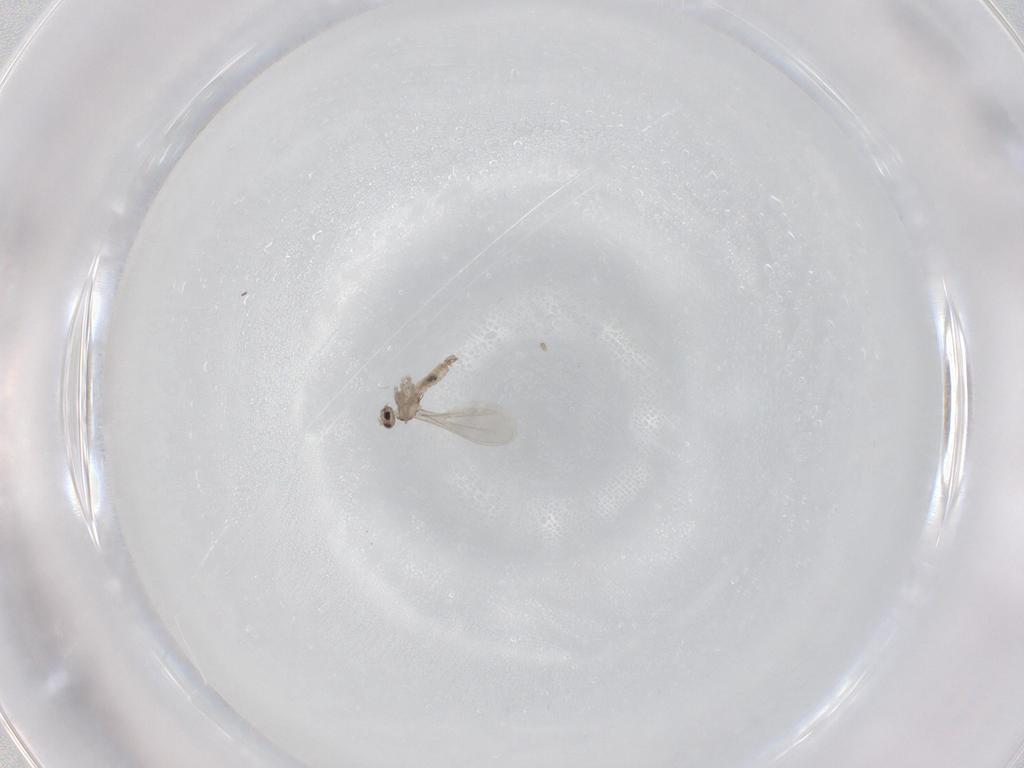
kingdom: Animalia
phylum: Arthropoda
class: Insecta
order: Diptera
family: Cecidomyiidae
